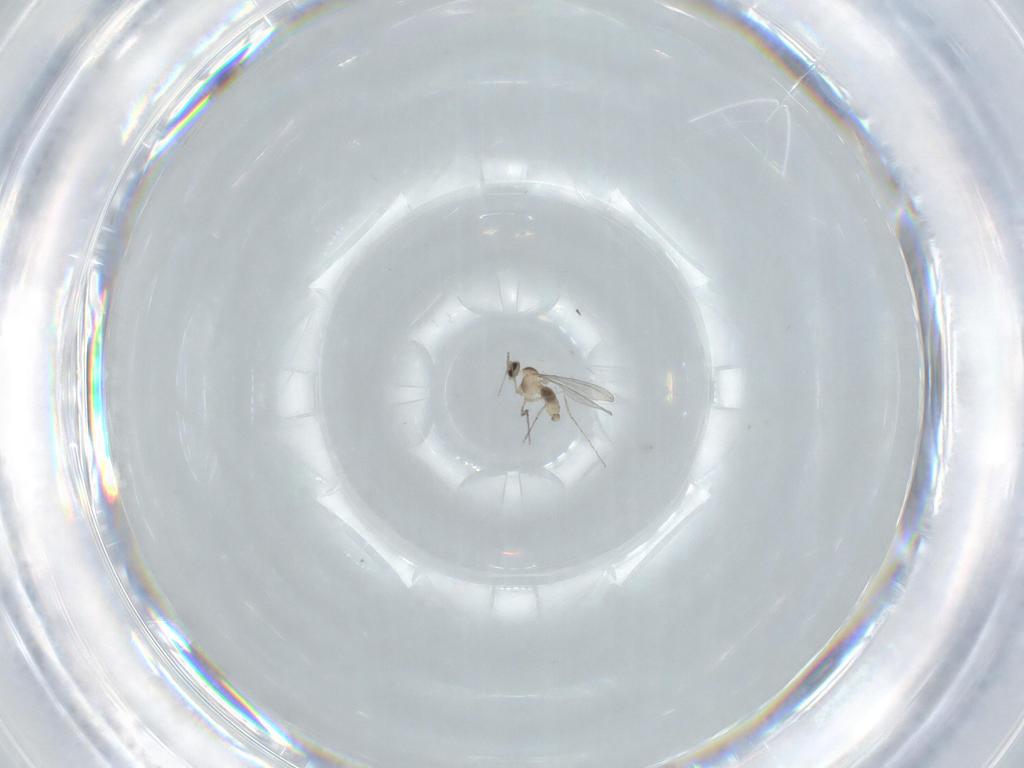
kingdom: Animalia
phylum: Arthropoda
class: Insecta
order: Diptera
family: Cecidomyiidae
